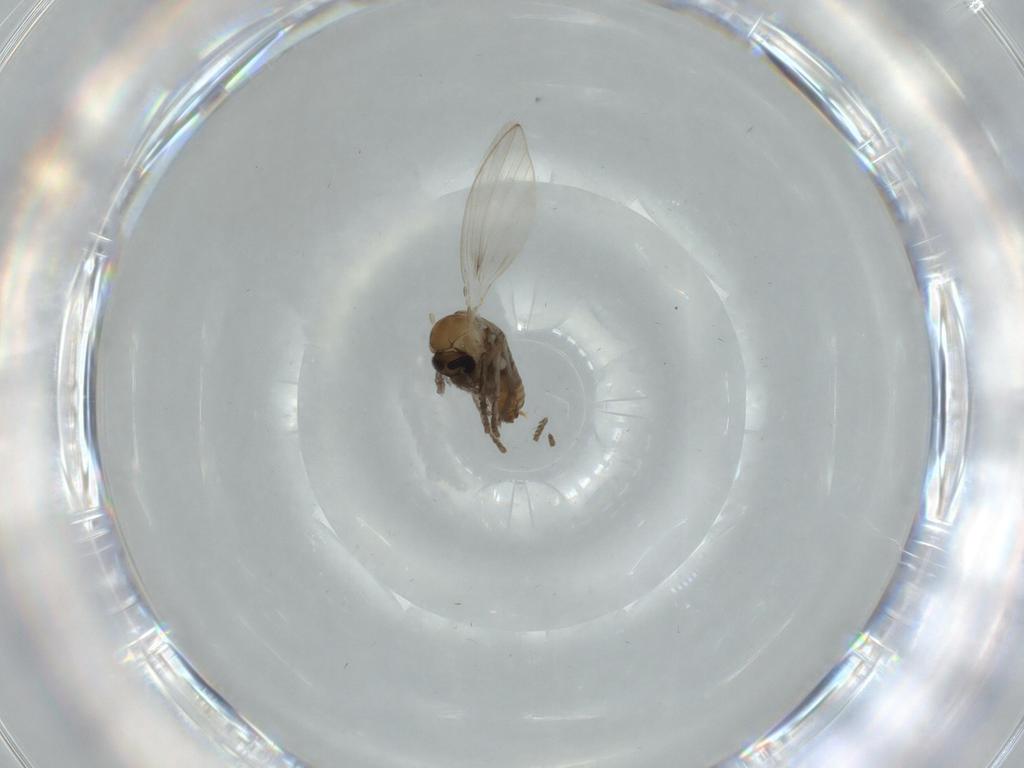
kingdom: Animalia
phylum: Arthropoda
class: Insecta
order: Diptera
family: Psychodidae
